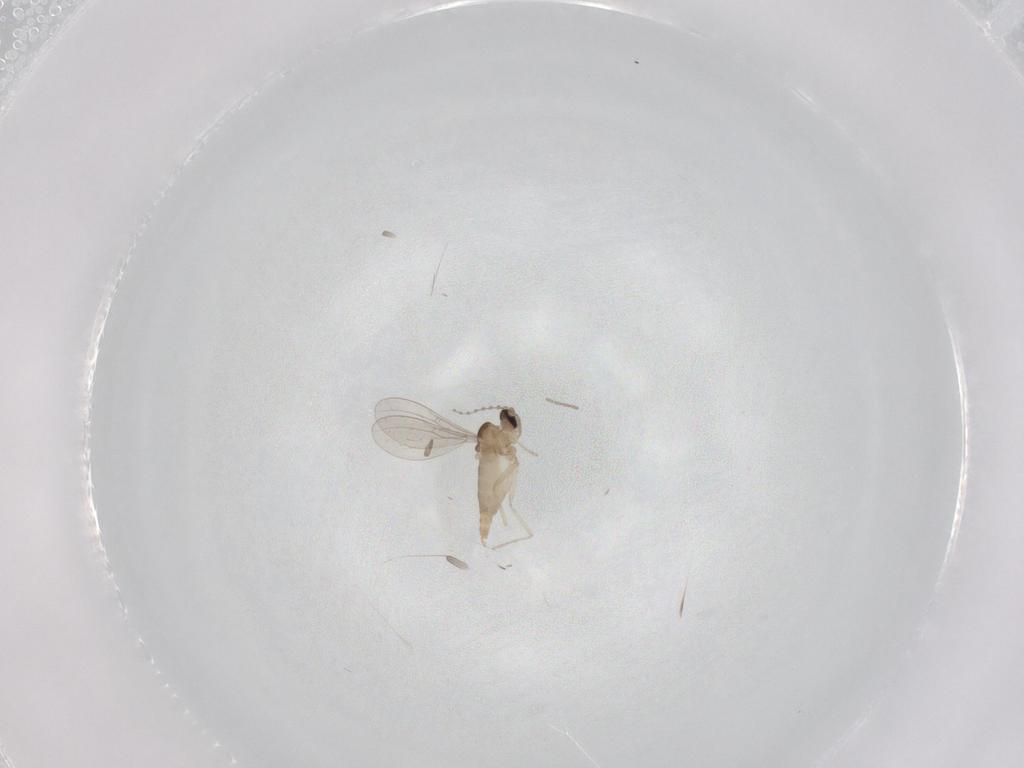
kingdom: Animalia
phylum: Arthropoda
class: Insecta
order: Diptera
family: Cecidomyiidae
